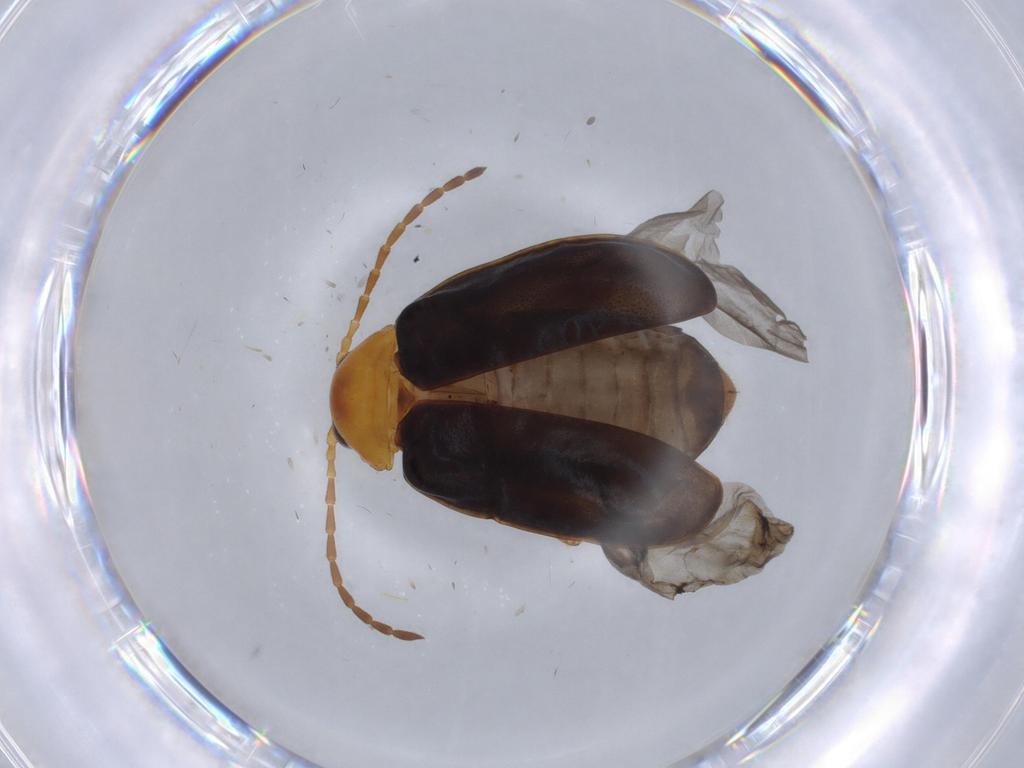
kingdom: Animalia
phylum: Arthropoda
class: Insecta
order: Coleoptera
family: Chrysomelidae
